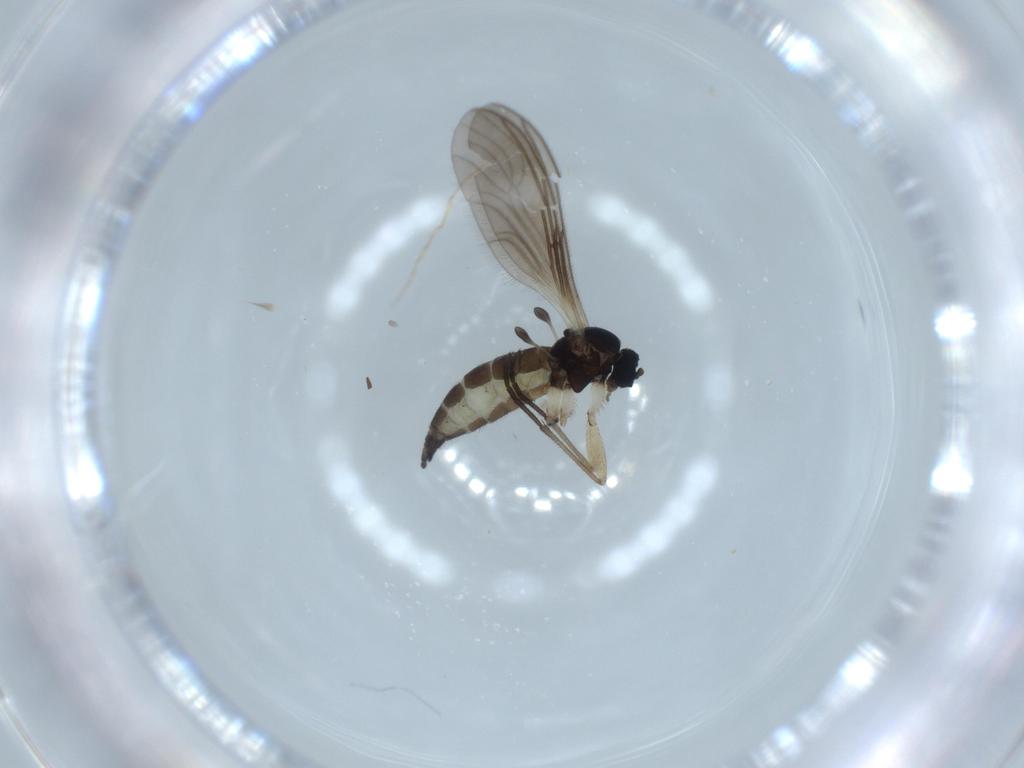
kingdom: Animalia
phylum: Arthropoda
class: Insecta
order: Diptera
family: Sciaridae
